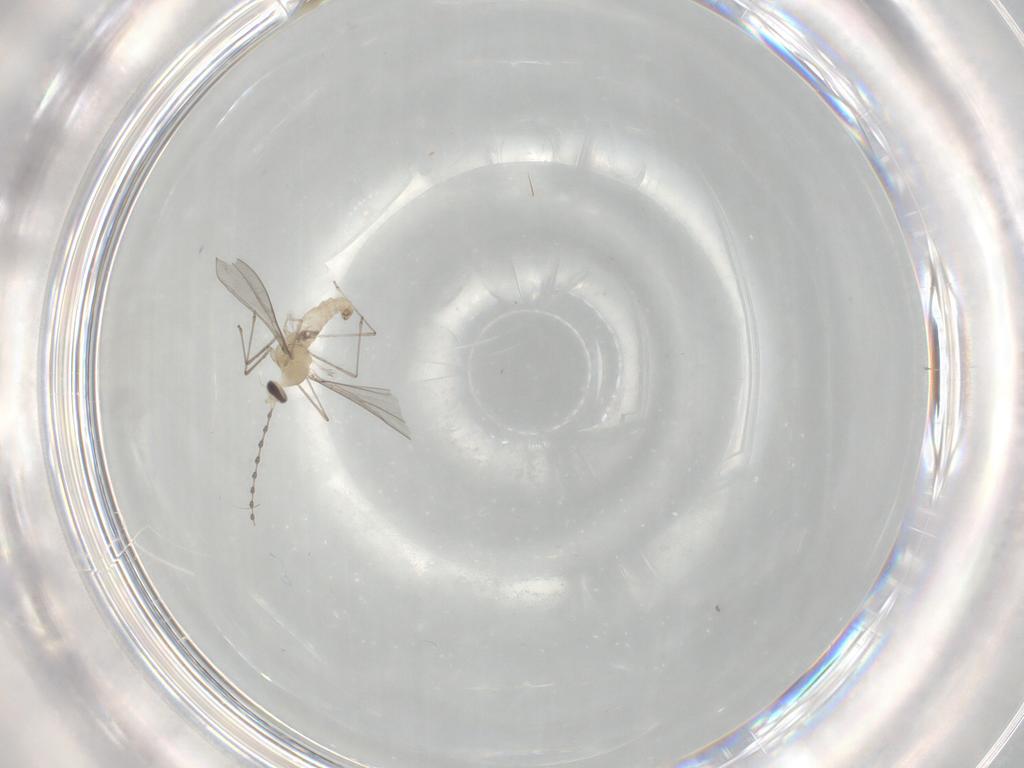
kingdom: Animalia
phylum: Arthropoda
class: Insecta
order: Diptera
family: Cecidomyiidae
